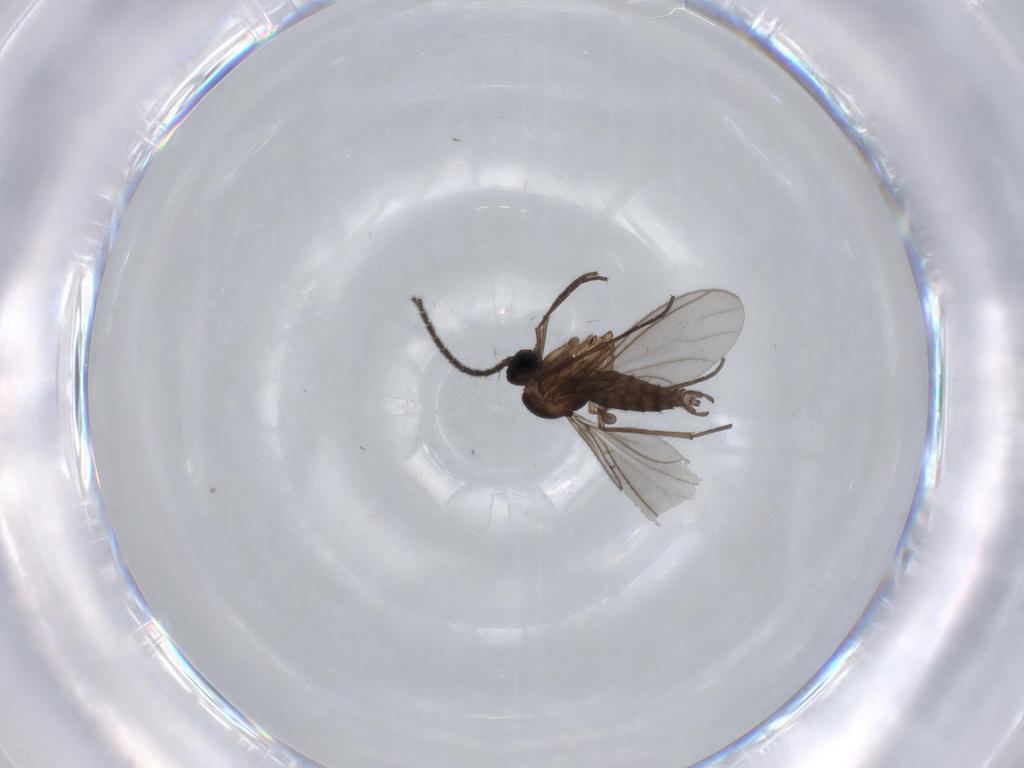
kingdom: Animalia
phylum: Arthropoda
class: Insecta
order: Diptera
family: Sciaridae
